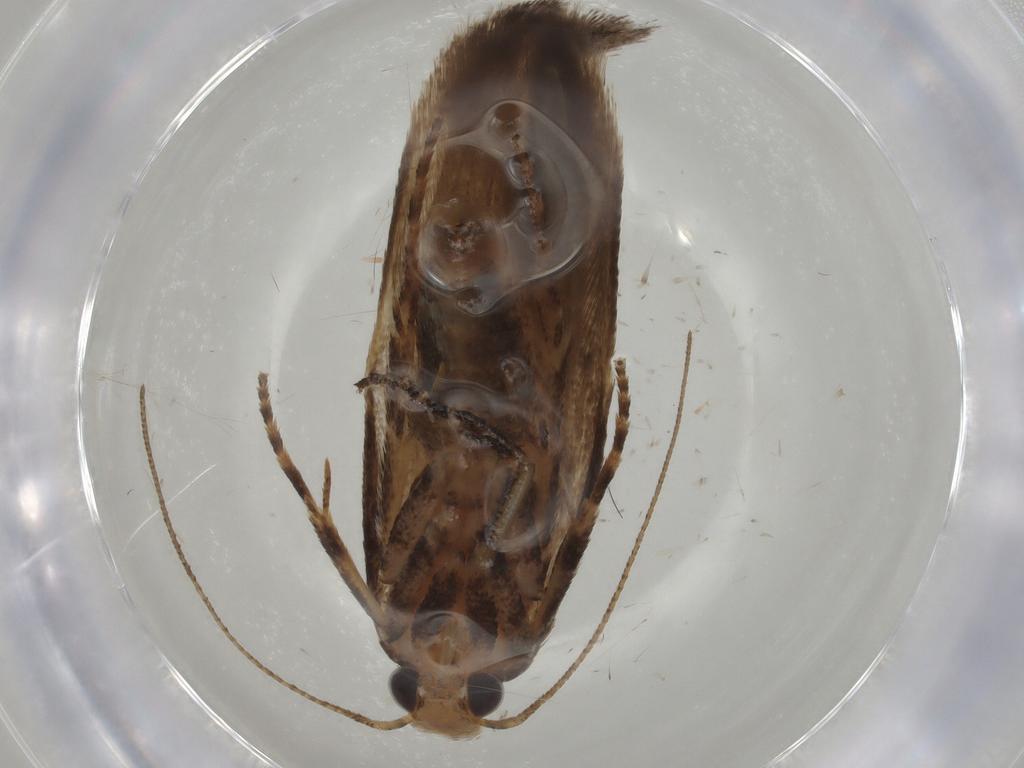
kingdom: Animalia
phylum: Arthropoda
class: Insecta
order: Lepidoptera
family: Gelechiidae
